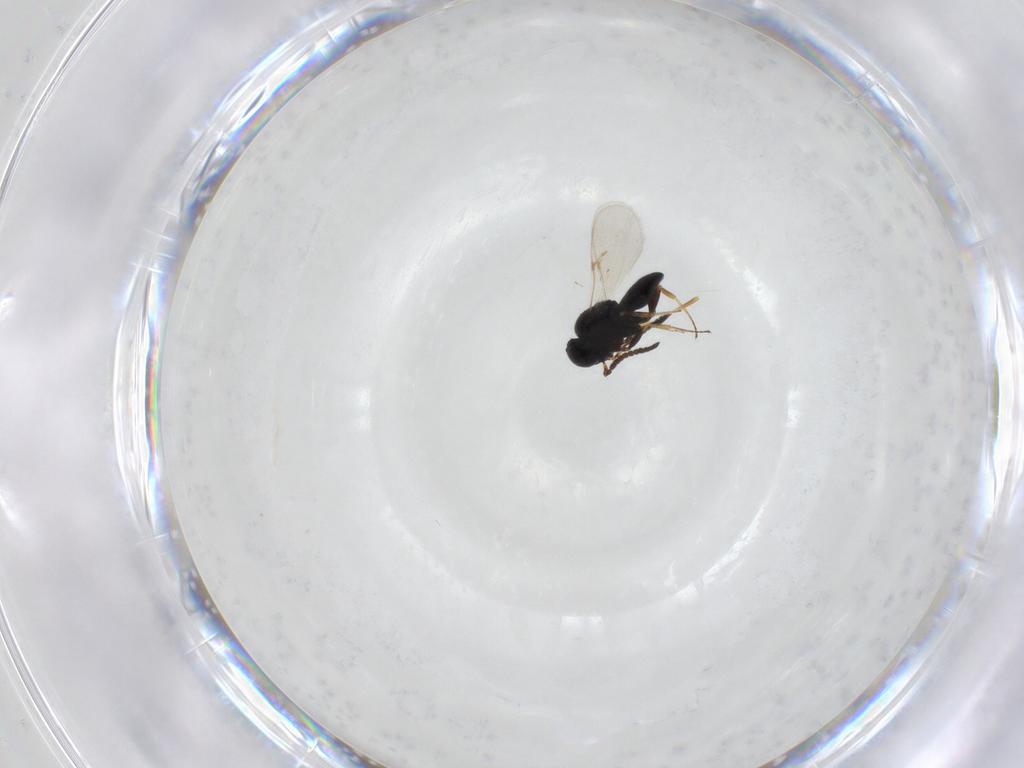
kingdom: Animalia
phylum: Arthropoda
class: Insecta
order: Hymenoptera
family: Scelionidae
